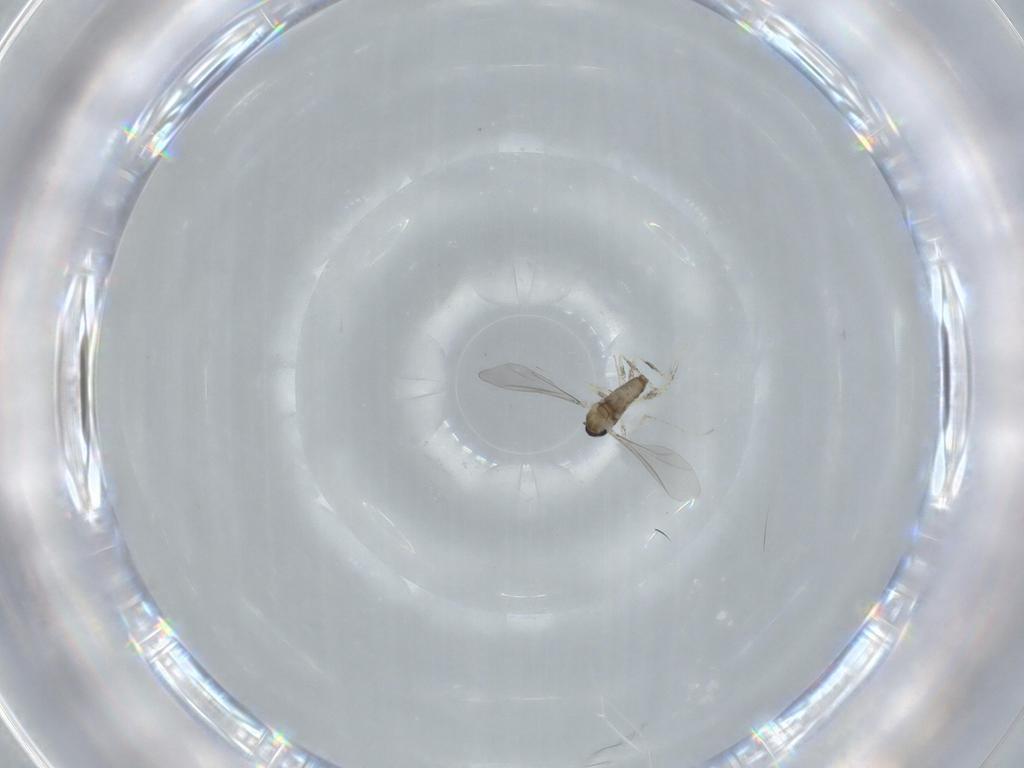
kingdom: Animalia
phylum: Arthropoda
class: Insecta
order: Diptera
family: Cecidomyiidae
